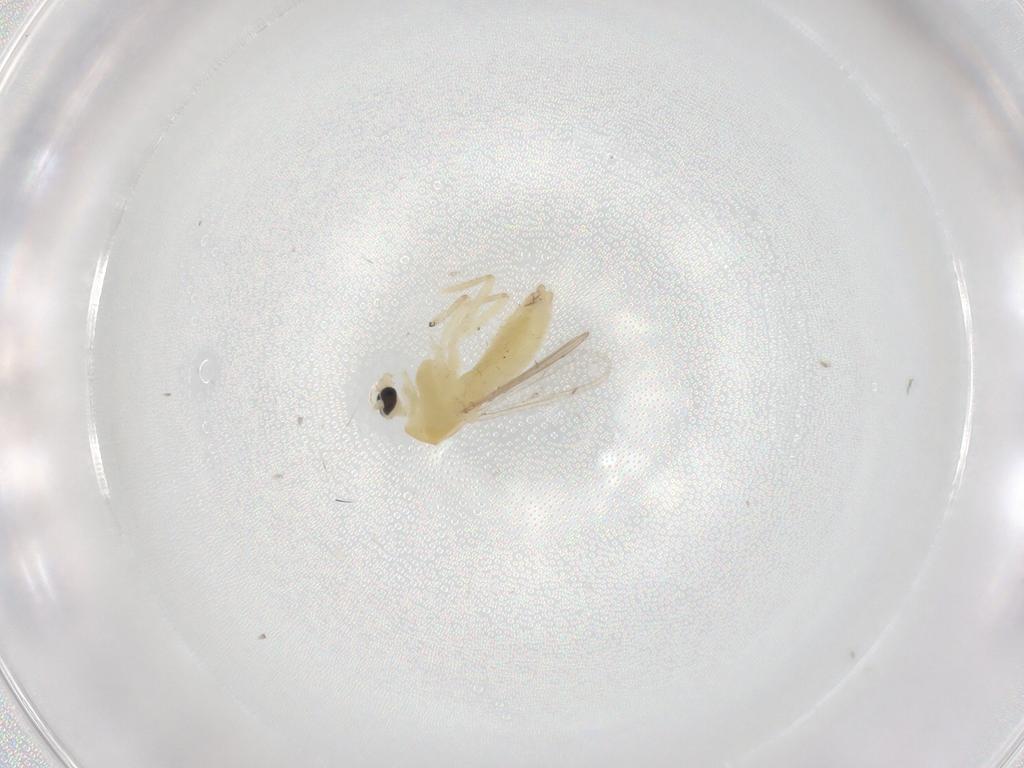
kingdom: Animalia
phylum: Arthropoda
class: Insecta
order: Diptera
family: Chironomidae
